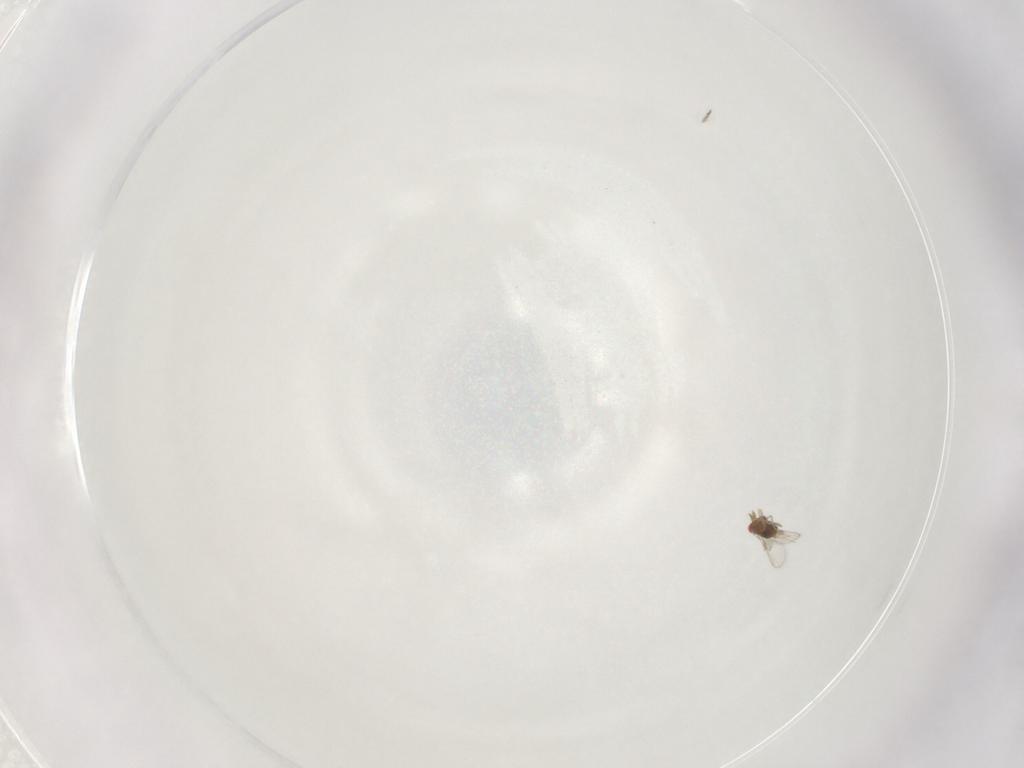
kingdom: Animalia
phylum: Arthropoda
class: Insecta
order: Hymenoptera
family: Trichogrammatidae
